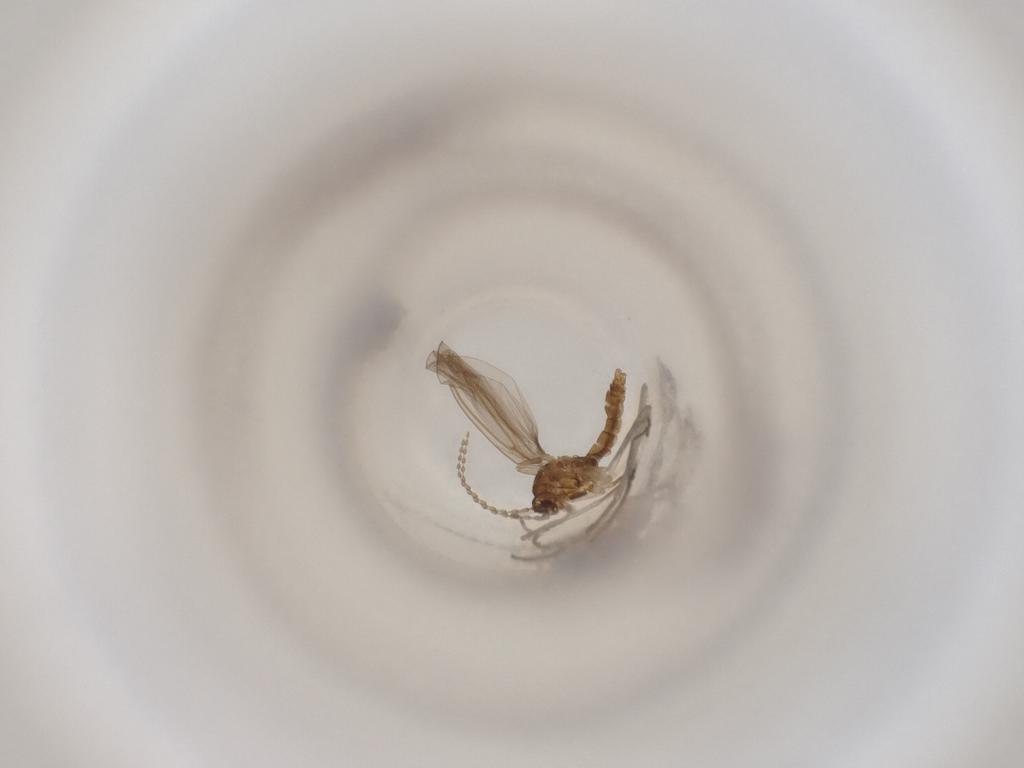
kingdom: Animalia
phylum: Arthropoda
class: Insecta
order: Diptera
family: Cecidomyiidae
